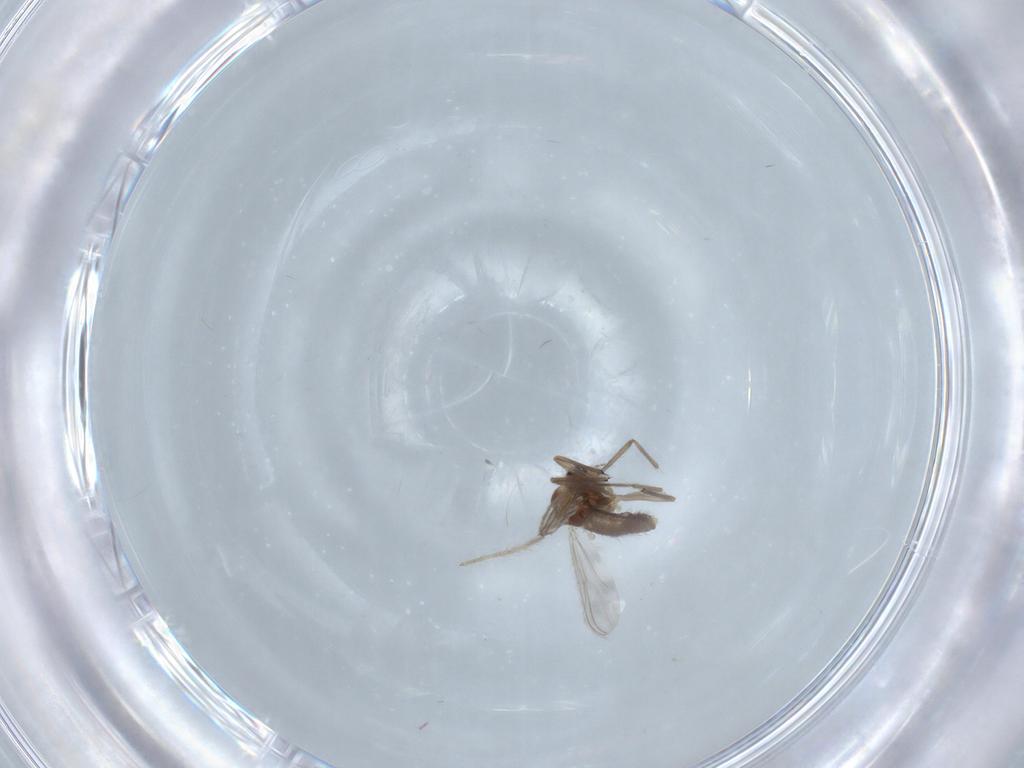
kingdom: Animalia
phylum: Arthropoda
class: Insecta
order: Diptera
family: Chironomidae
